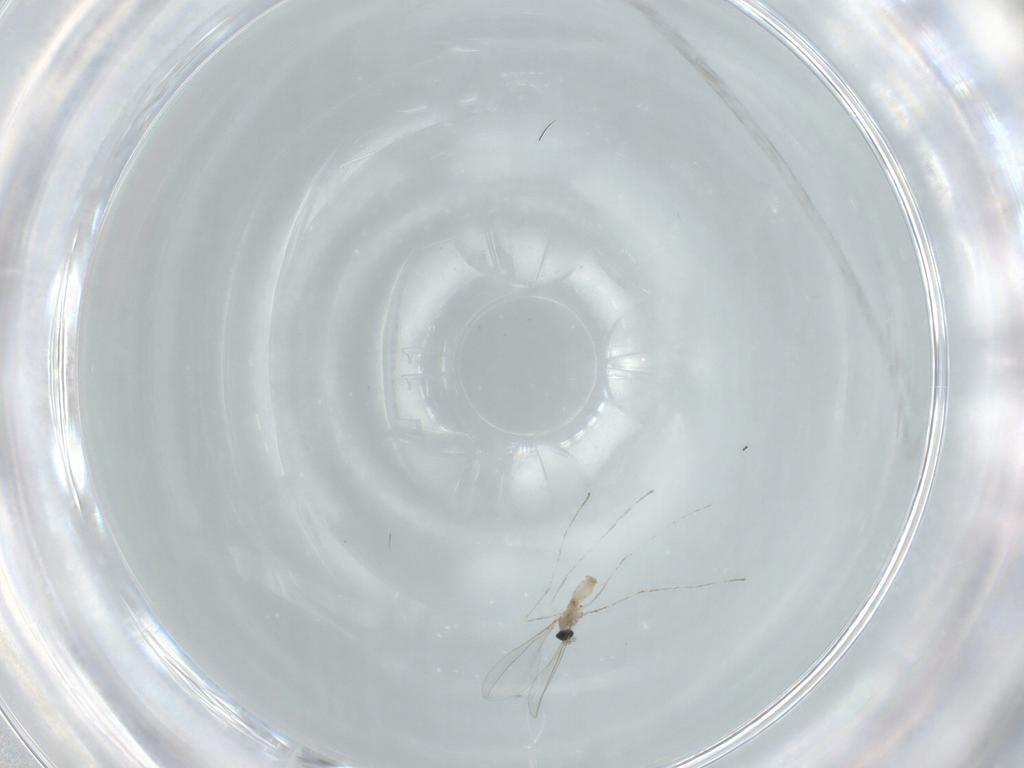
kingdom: Animalia
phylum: Arthropoda
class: Insecta
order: Diptera
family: Cecidomyiidae
